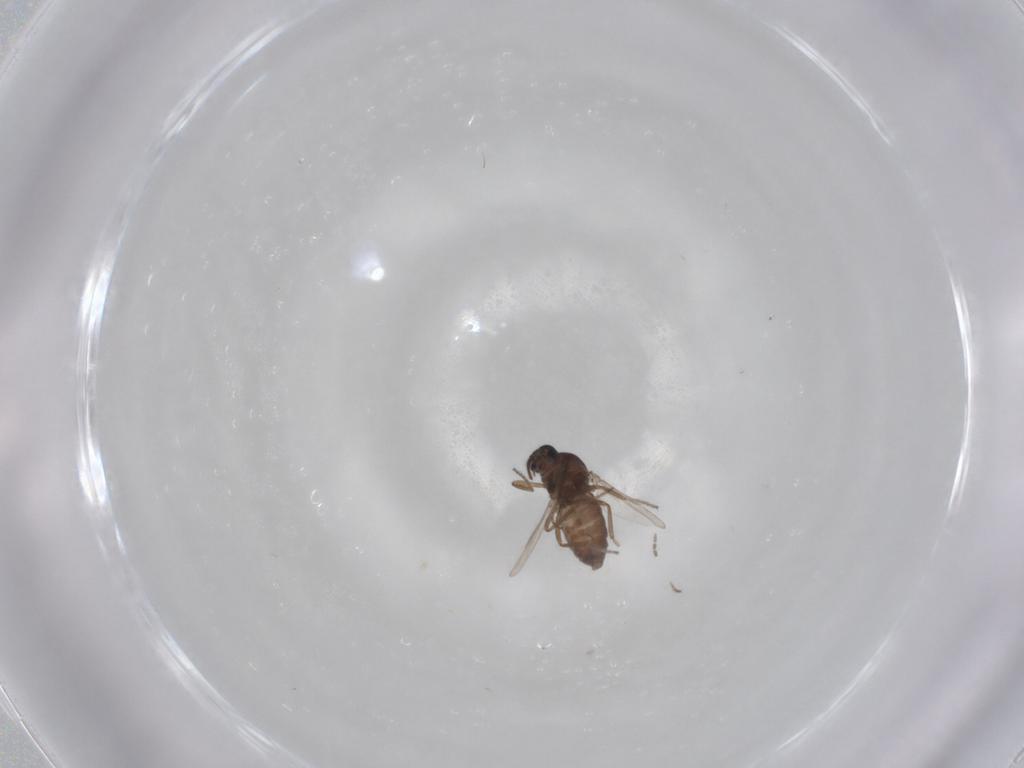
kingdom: Animalia
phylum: Arthropoda
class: Insecta
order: Diptera
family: Ceratopogonidae
